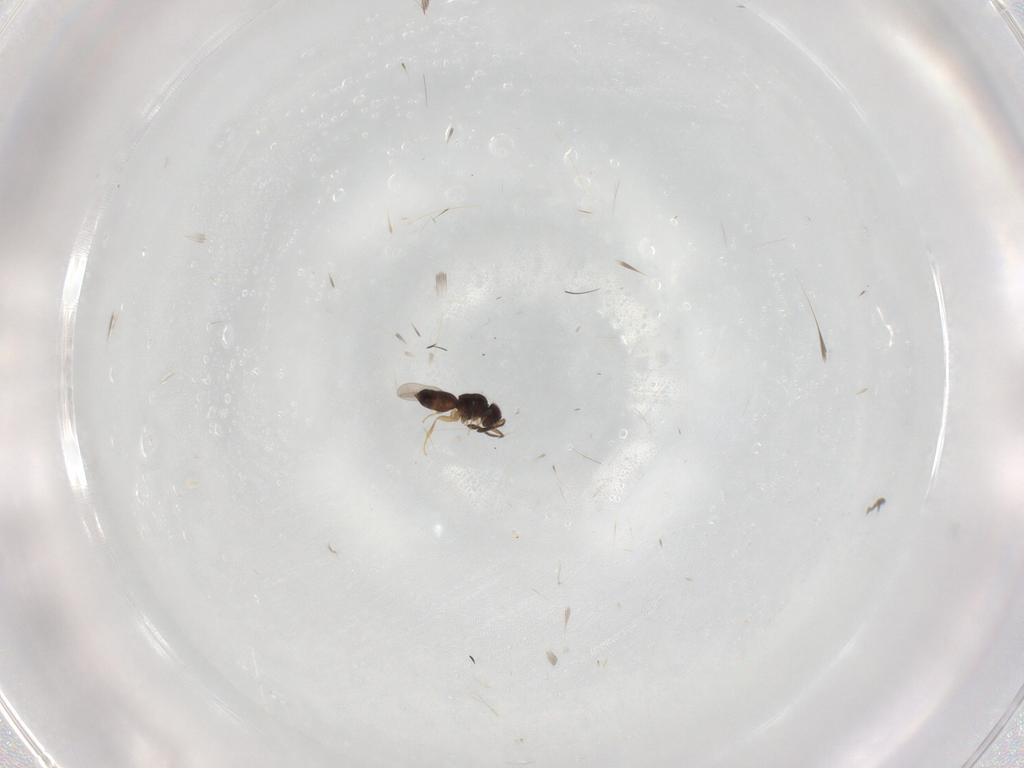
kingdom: Animalia
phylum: Arthropoda
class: Insecta
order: Hymenoptera
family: Mymaridae
